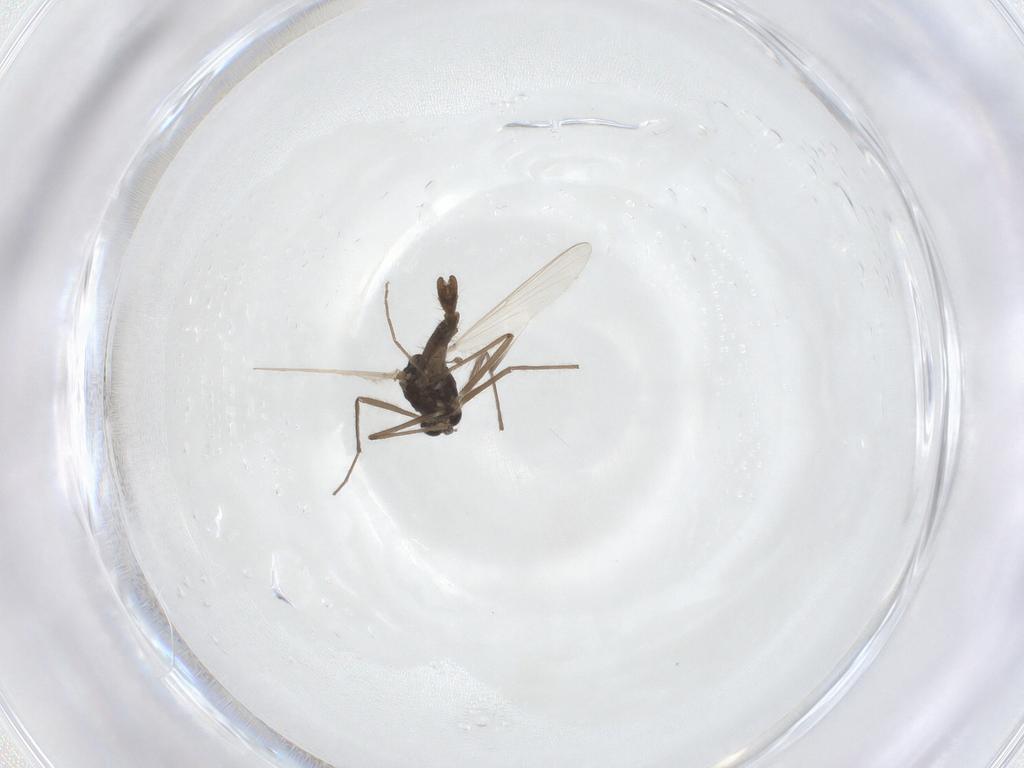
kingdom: Animalia
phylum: Arthropoda
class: Insecta
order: Diptera
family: Chironomidae
